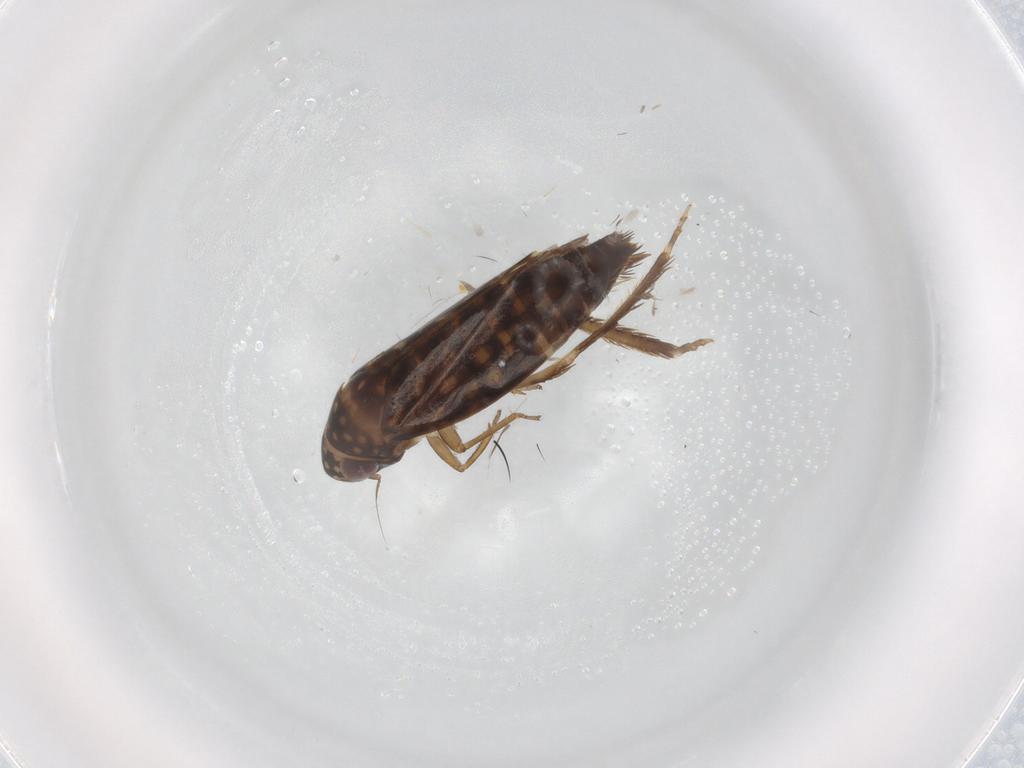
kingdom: Animalia
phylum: Arthropoda
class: Insecta
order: Hemiptera
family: Cicadellidae
